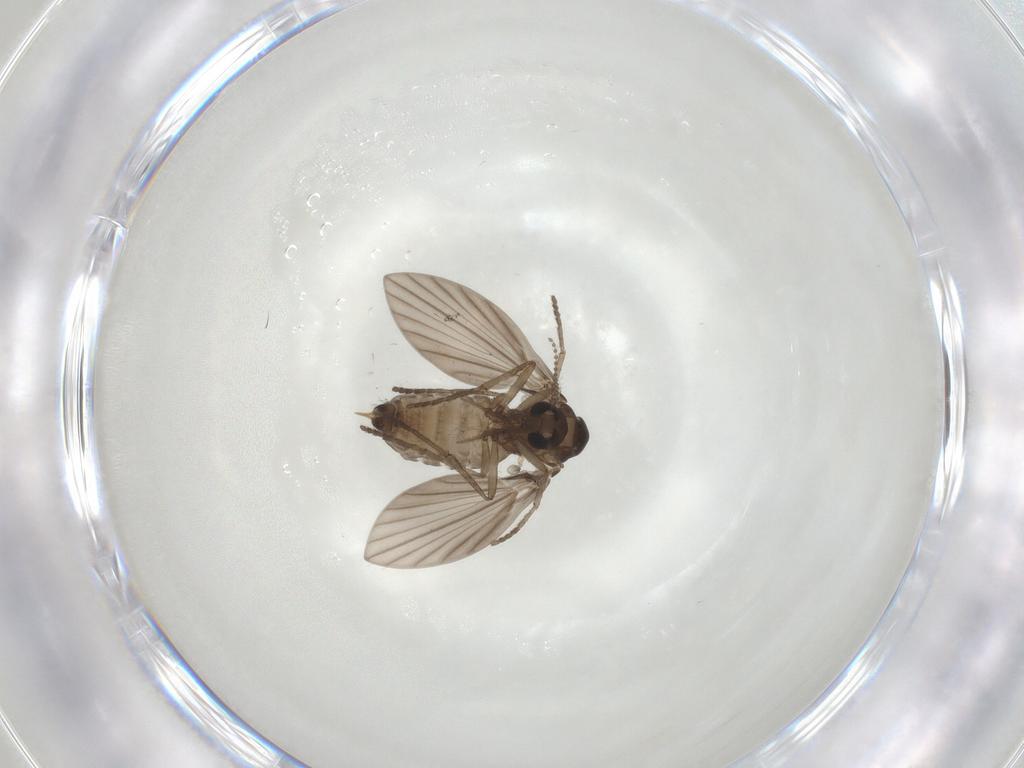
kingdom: Animalia
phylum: Arthropoda
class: Insecta
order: Diptera
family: Psychodidae
